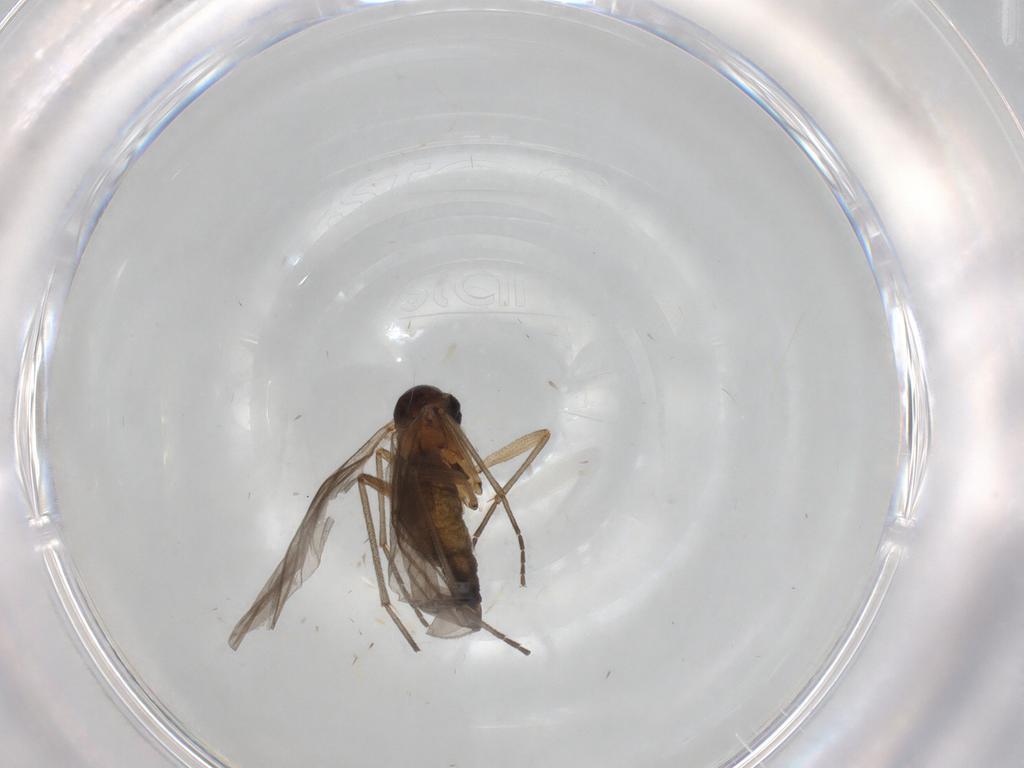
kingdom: Animalia
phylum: Arthropoda
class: Insecta
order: Diptera
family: Sciaridae
